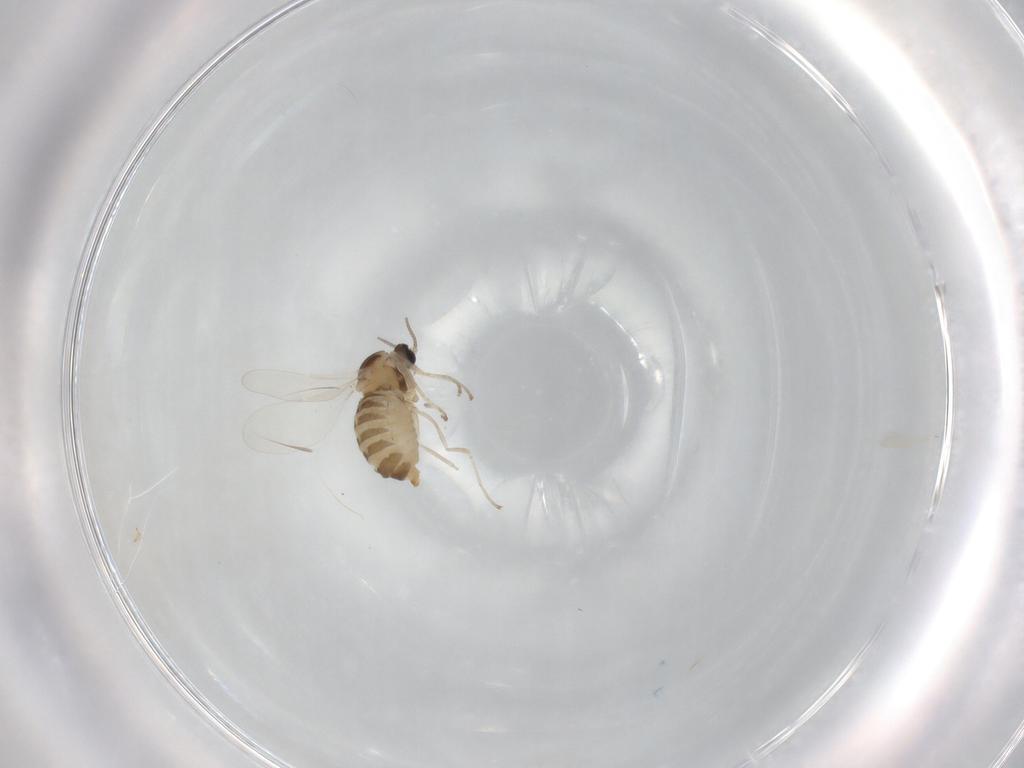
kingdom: Animalia
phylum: Arthropoda
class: Insecta
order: Diptera
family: Cecidomyiidae
